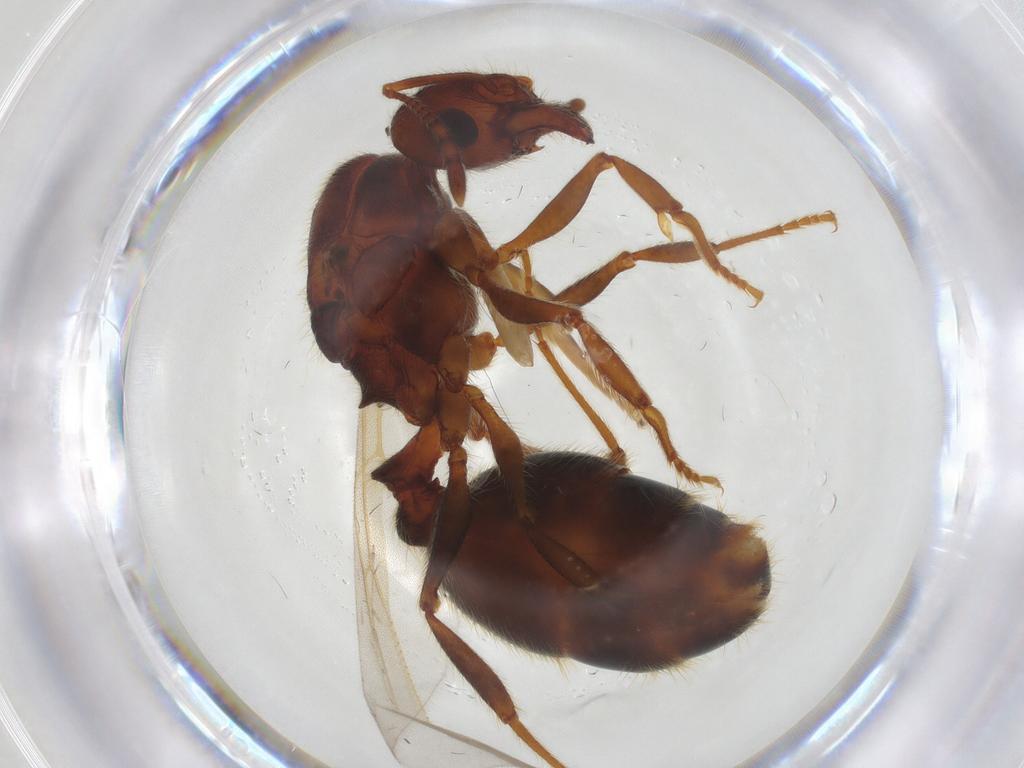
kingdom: Animalia
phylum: Arthropoda
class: Insecta
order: Hymenoptera
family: Formicidae
